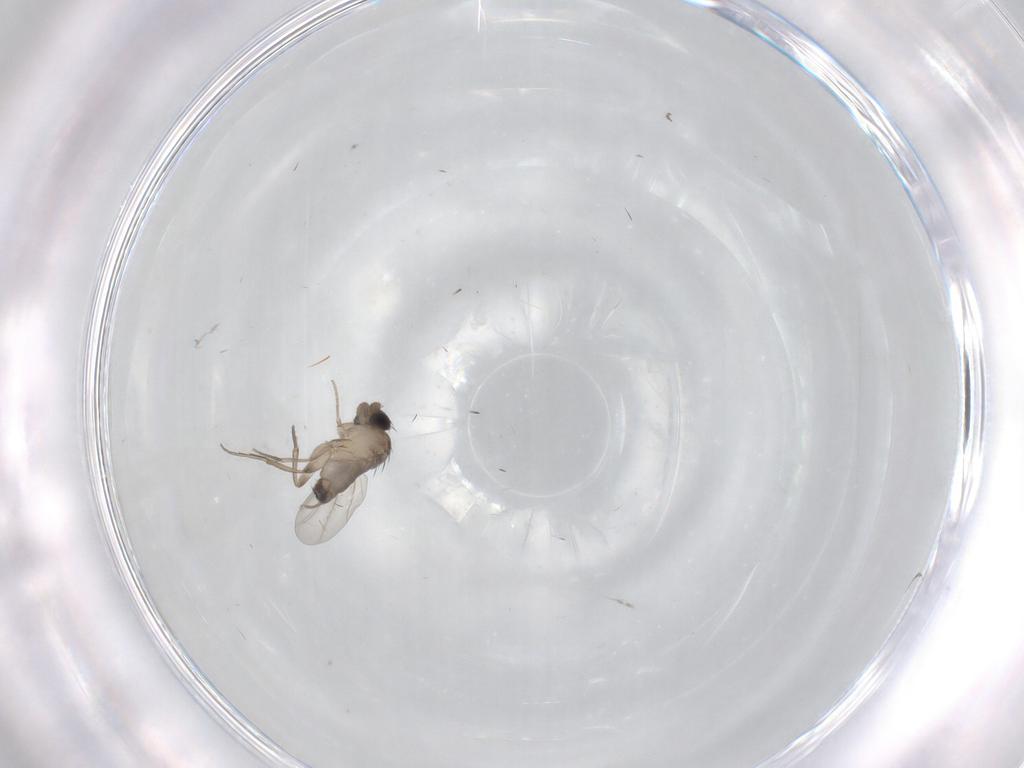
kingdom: Animalia
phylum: Arthropoda
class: Insecta
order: Diptera
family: Phoridae
